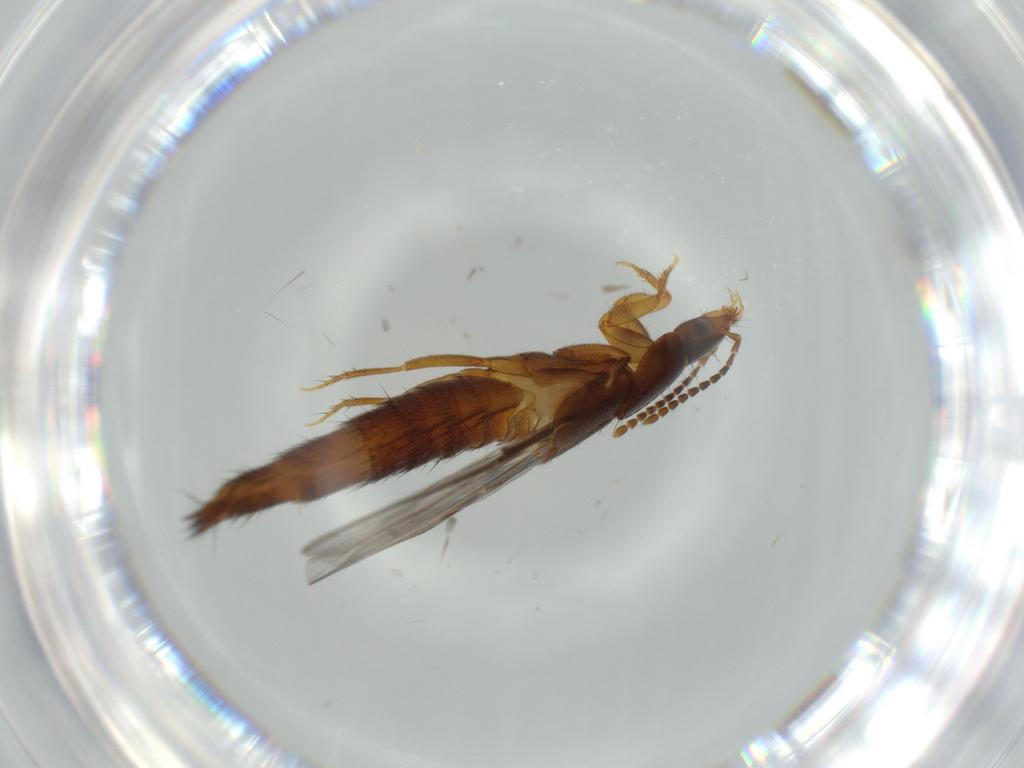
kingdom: Animalia
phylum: Arthropoda
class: Insecta
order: Coleoptera
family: Staphylinidae
